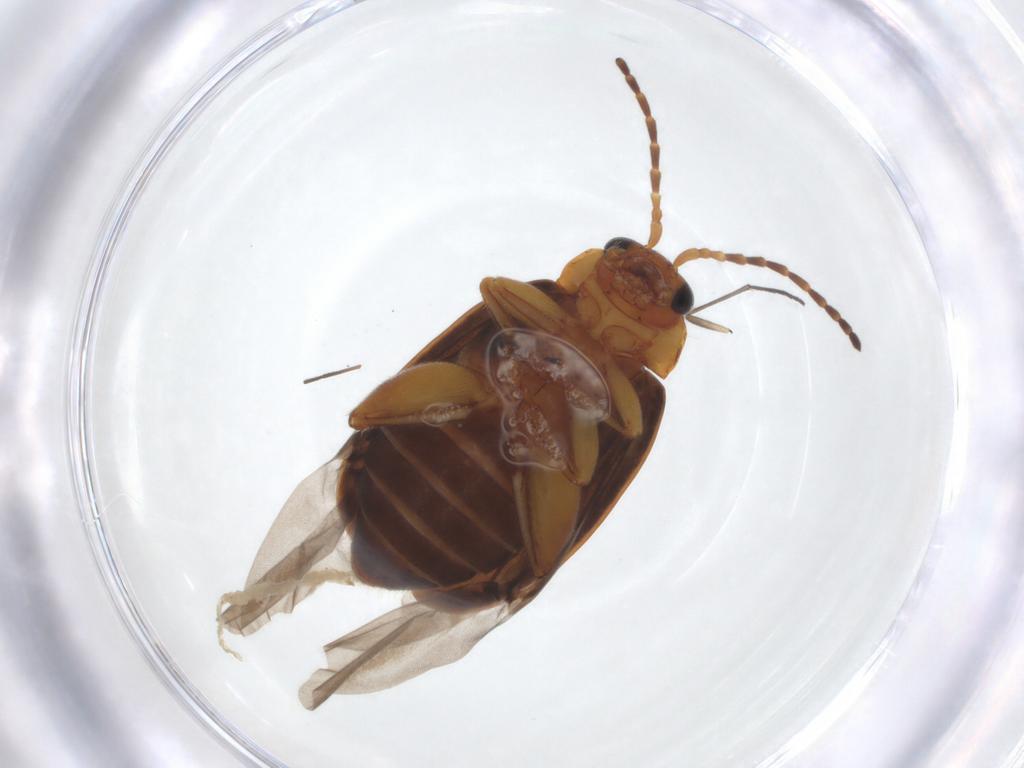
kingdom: Animalia
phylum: Arthropoda
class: Insecta
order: Coleoptera
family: Chrysomelidae
